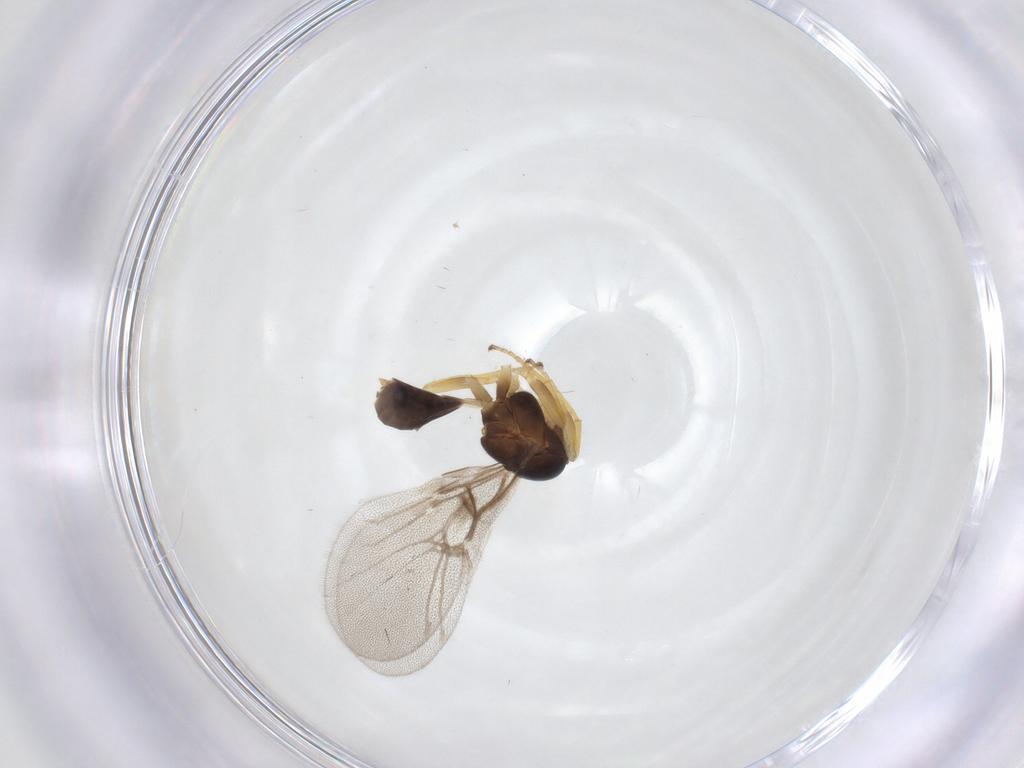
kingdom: Animalia
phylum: Arthropoda
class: Insecta
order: Hymenoptera
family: Cynipidae
